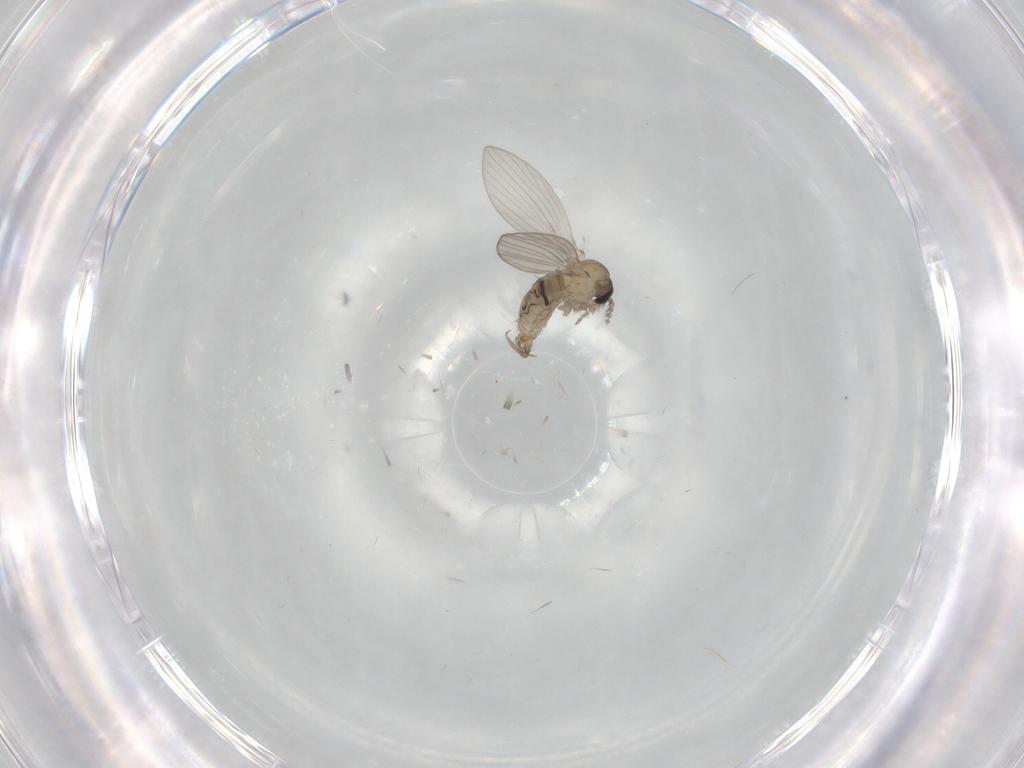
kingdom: Animalia
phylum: Arthropoda
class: Insecta
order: Diptera
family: Psychodidae
